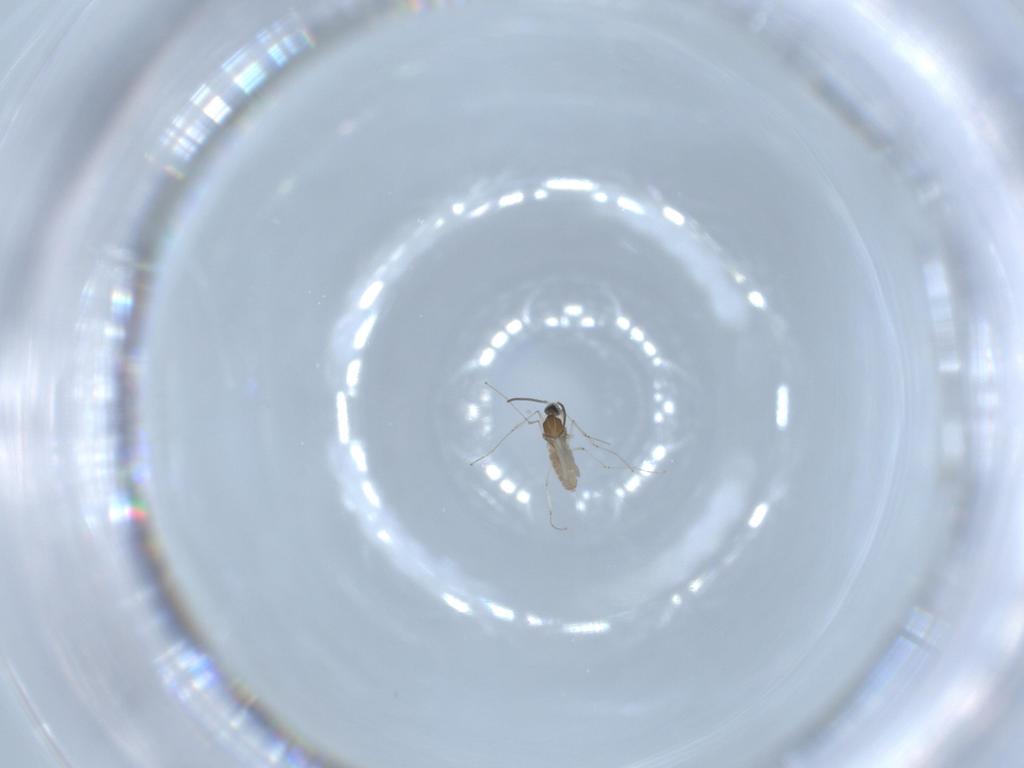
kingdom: Animalia
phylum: Arthropoda
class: Insecta
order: Diptera
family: Cecidomyiidae
